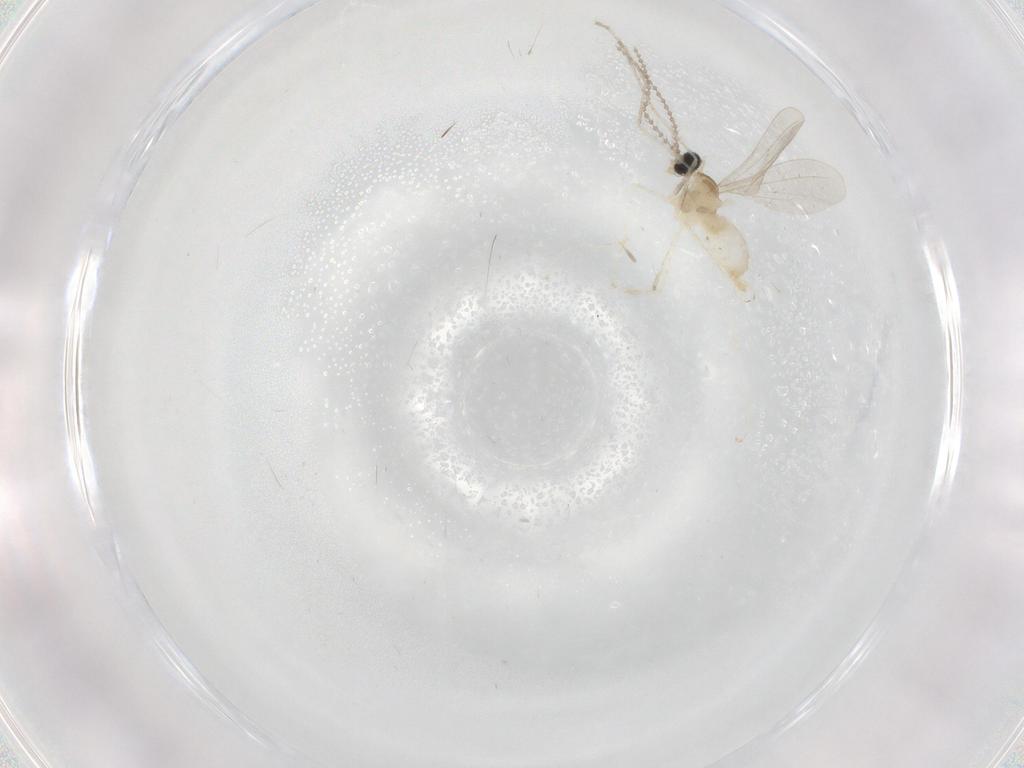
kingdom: Animalia
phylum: Arthropoda
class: Insecta
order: Diptera
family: Cecidomyiidae
